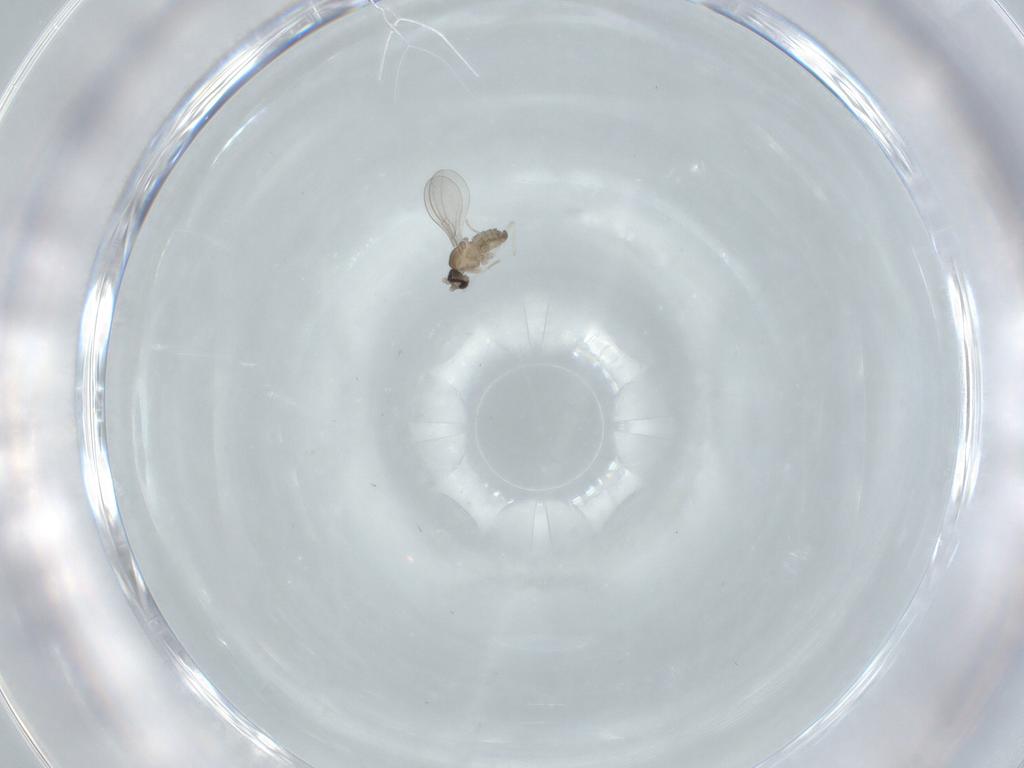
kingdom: Animalia
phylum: Arthropoda
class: Insecta
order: Diptera
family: Cecidomyiidae
